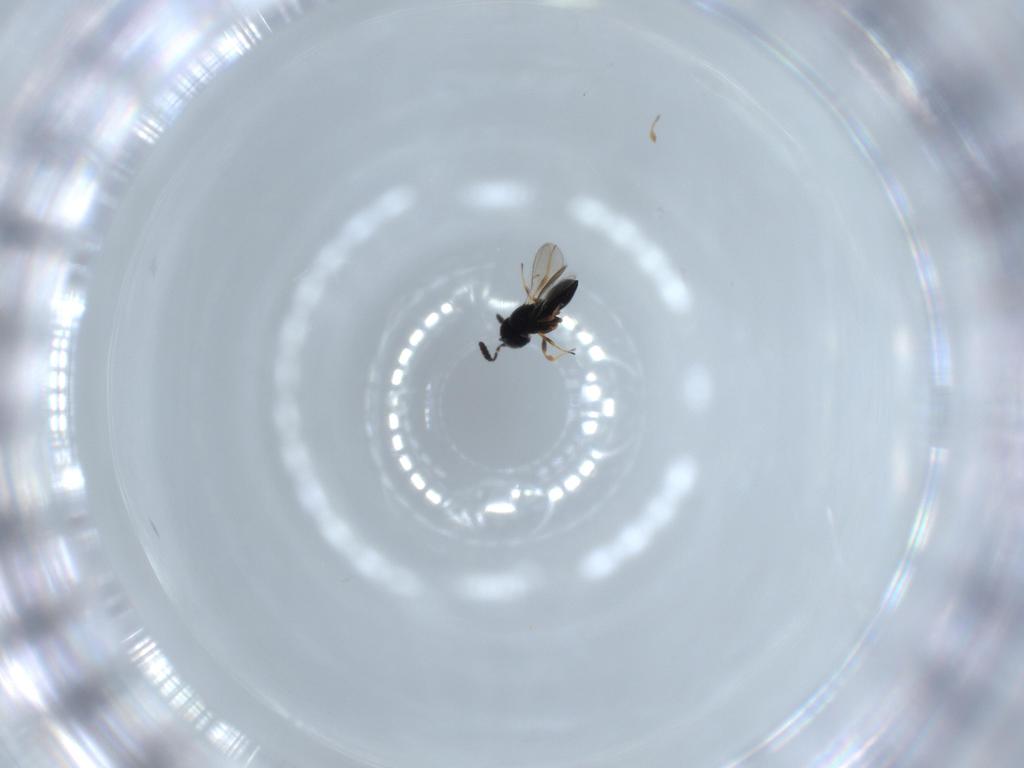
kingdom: Animalia
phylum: Arthropoda
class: Insecta
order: Hymenoptera
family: Scelionidae
